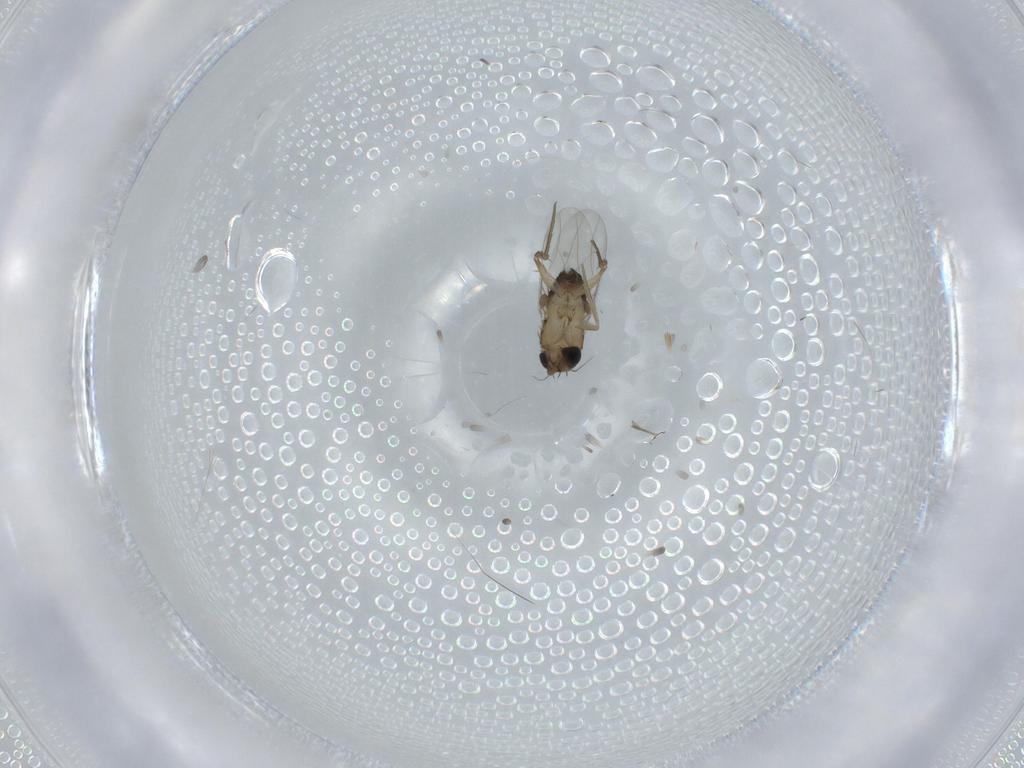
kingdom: Animalia
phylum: Arthropoda
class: Insecta
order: Diptera
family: Phoridae
